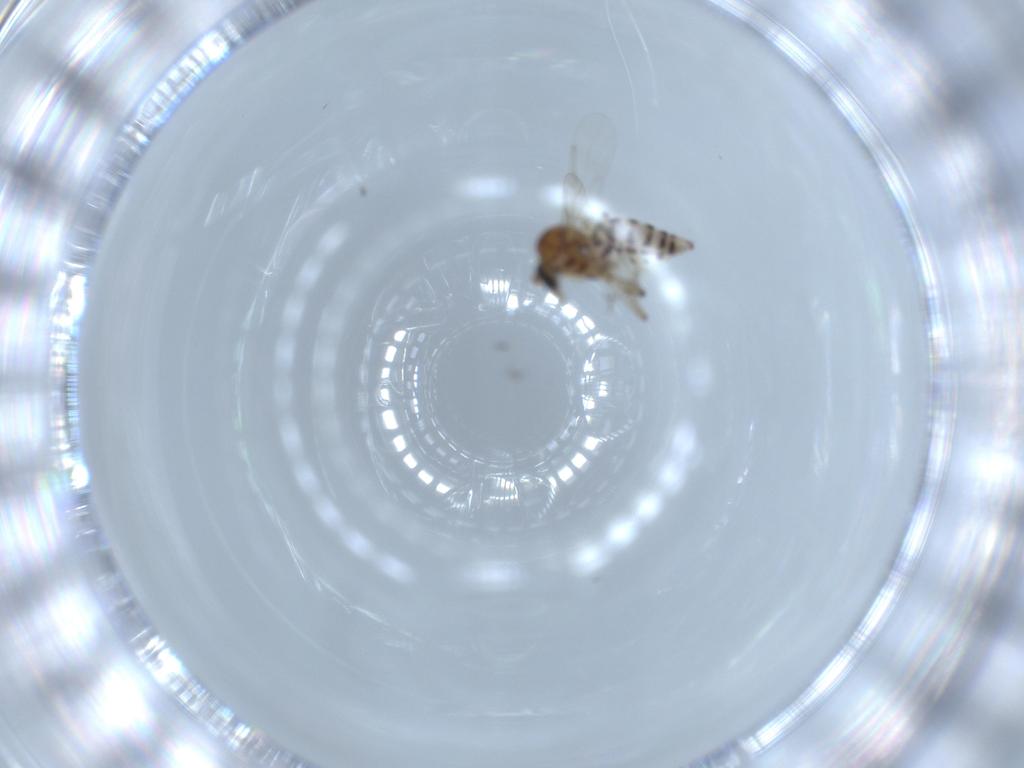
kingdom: Animalia
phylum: Arthropoda
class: Insecta
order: Diptera
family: Ceratopogonidae
